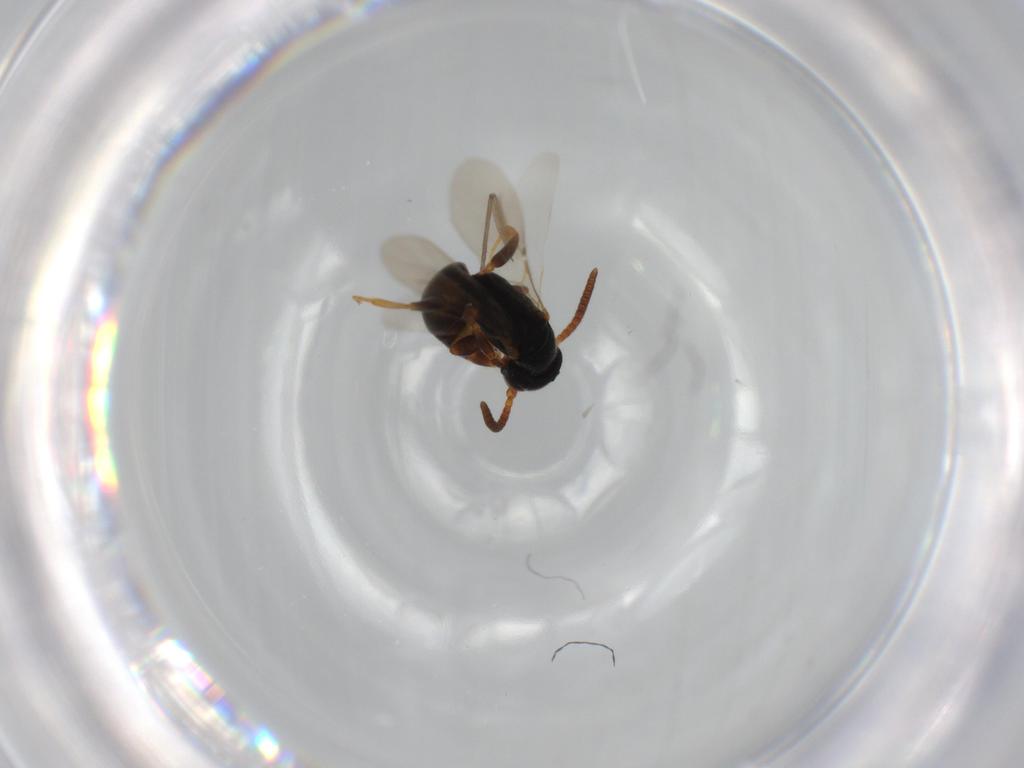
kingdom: Animalia
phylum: Arthropoda
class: Insecta
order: Hymenoptera
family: Bethylidae
